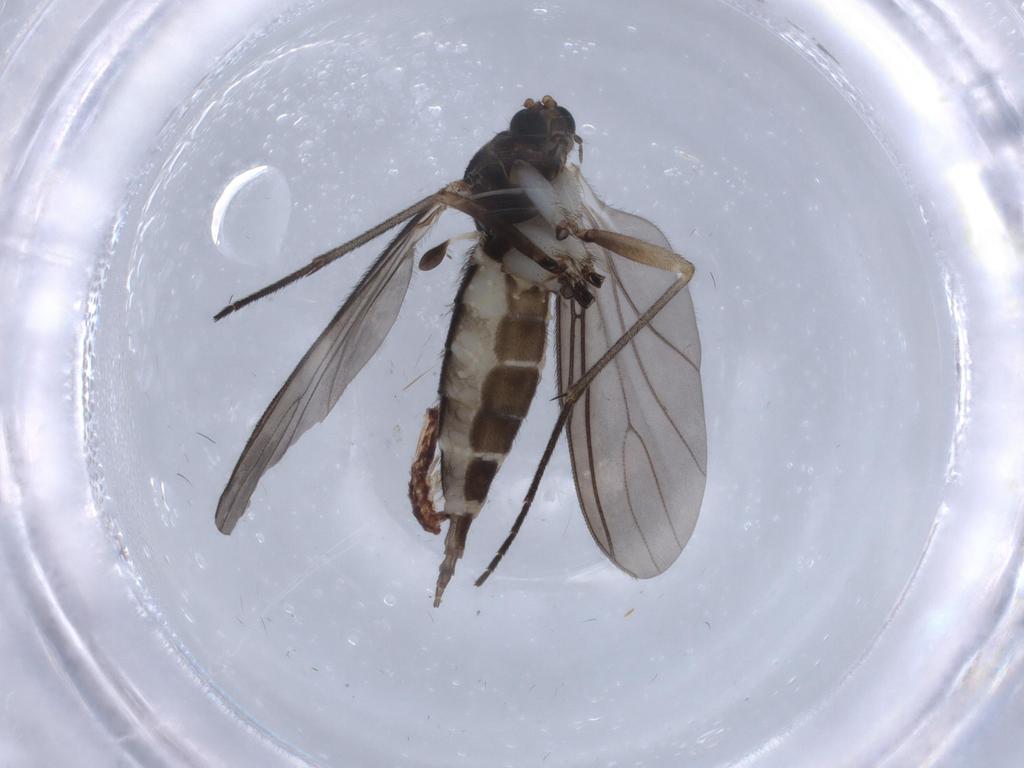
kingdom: Animalia
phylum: Arthropoda
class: Insecta
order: Diptera
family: Sciaridae
